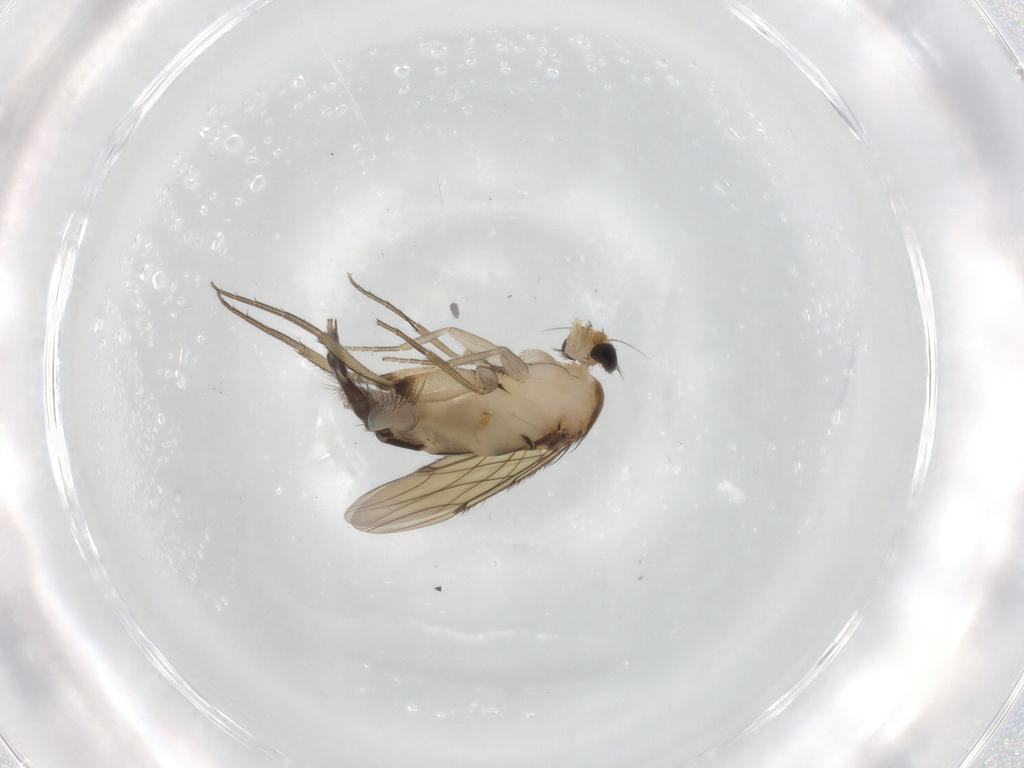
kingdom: Animalia
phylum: Arthropoda
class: Insecta
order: Diptera
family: Phoridae
